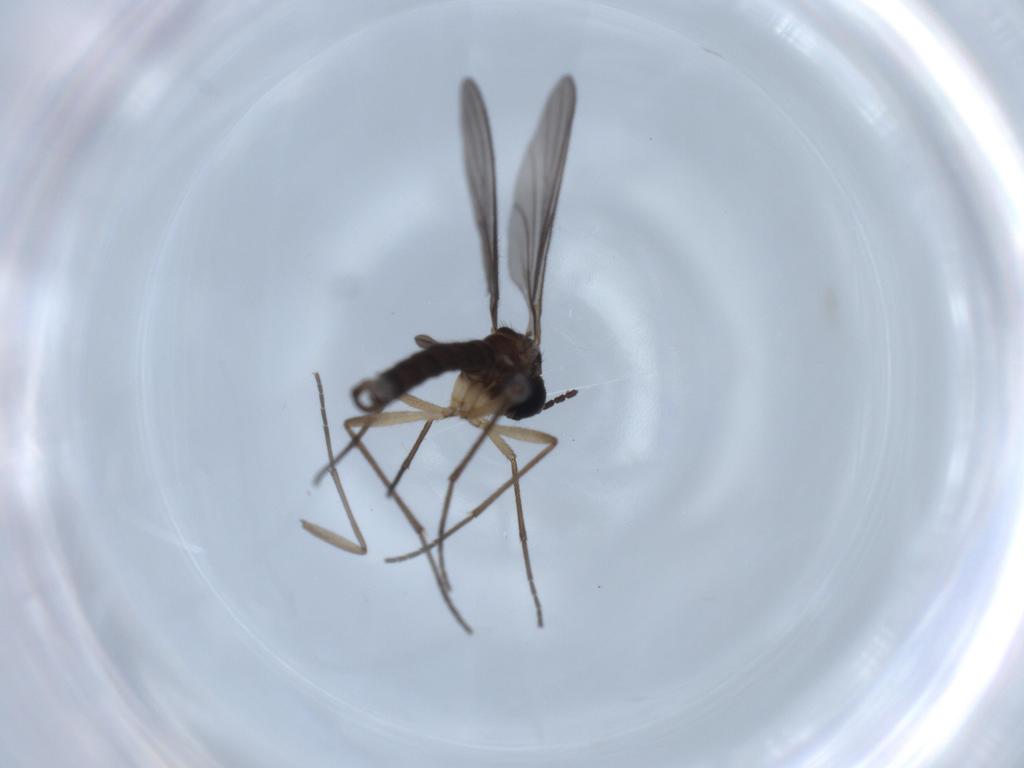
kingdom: Animalia
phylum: Arthropoda
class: Insecta
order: Diptera
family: Sciaridae
